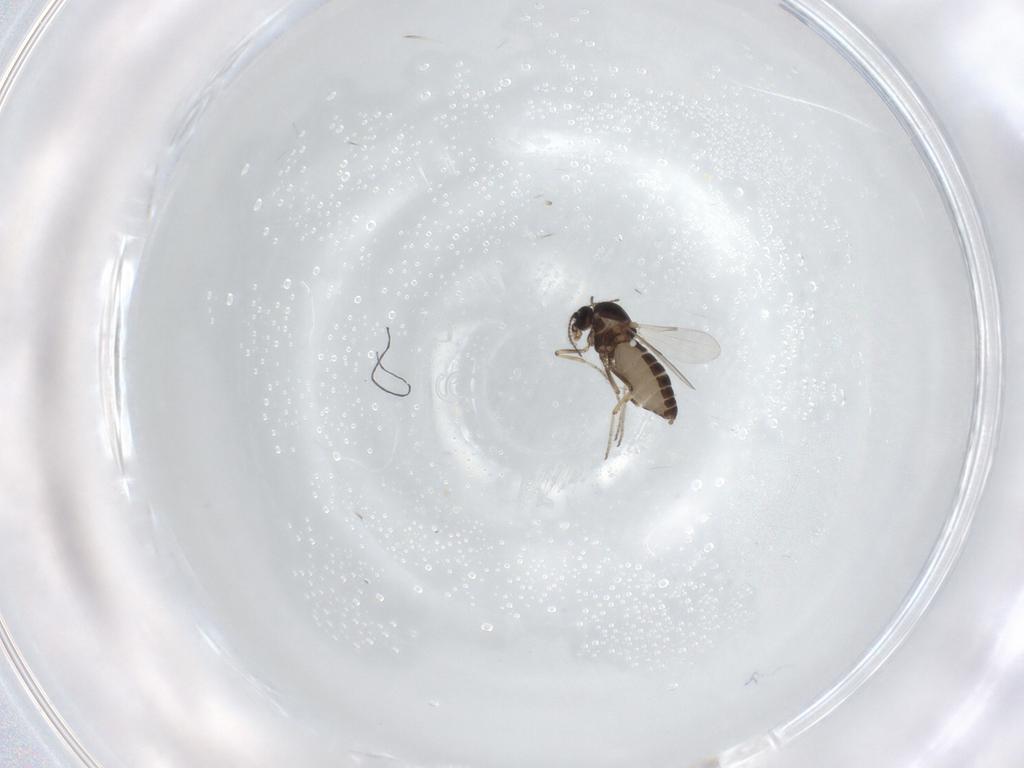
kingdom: Animalia
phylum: Arthropoda
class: Insecta
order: Diptera
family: Ceratopogonidae
